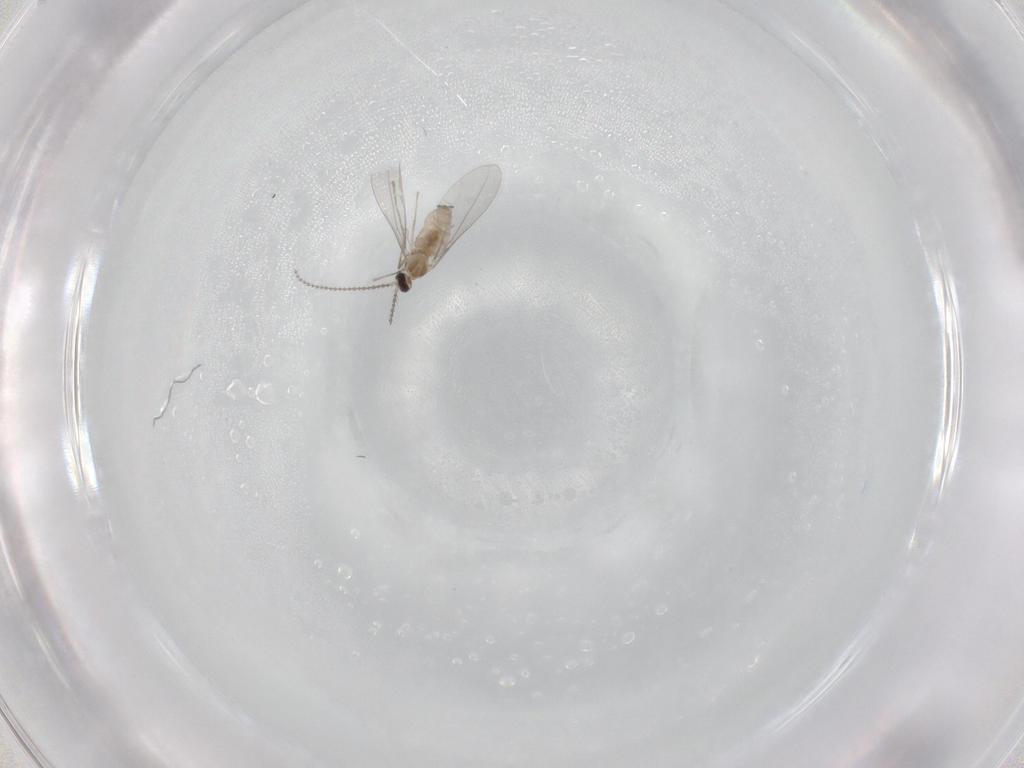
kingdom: Animalia
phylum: Arthropoda
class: Insecta
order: Diptera
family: Cecidomyiidae
